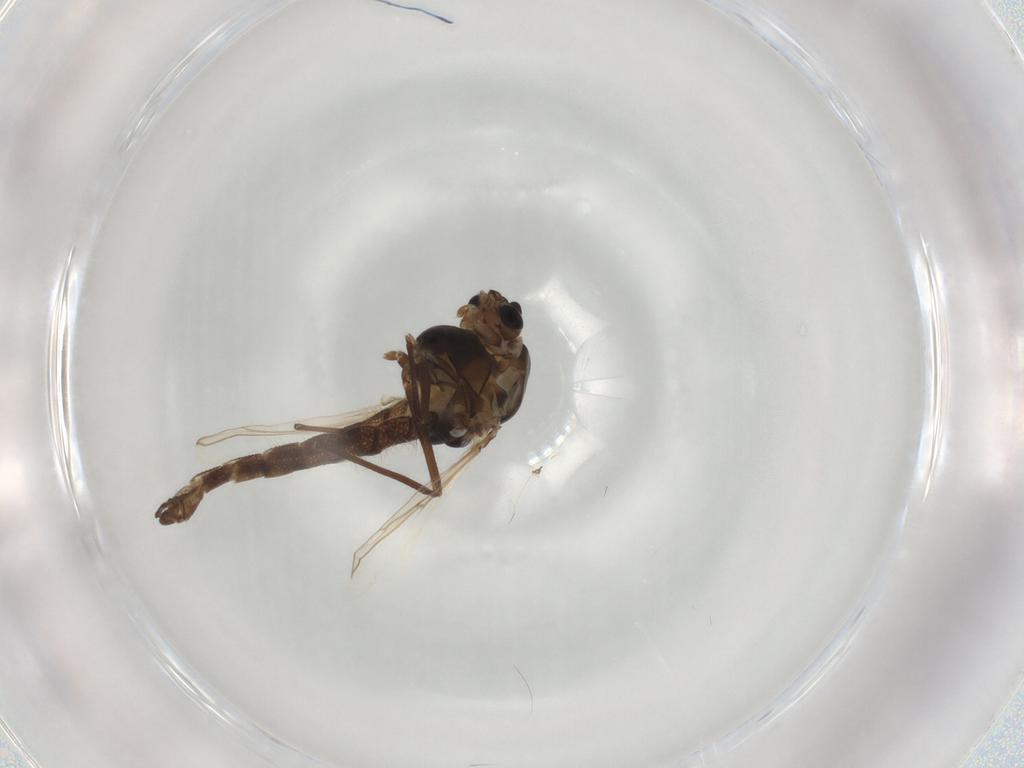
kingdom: Animalia
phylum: Arthropoda
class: Insecta
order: Diptera
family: Chironomidae
